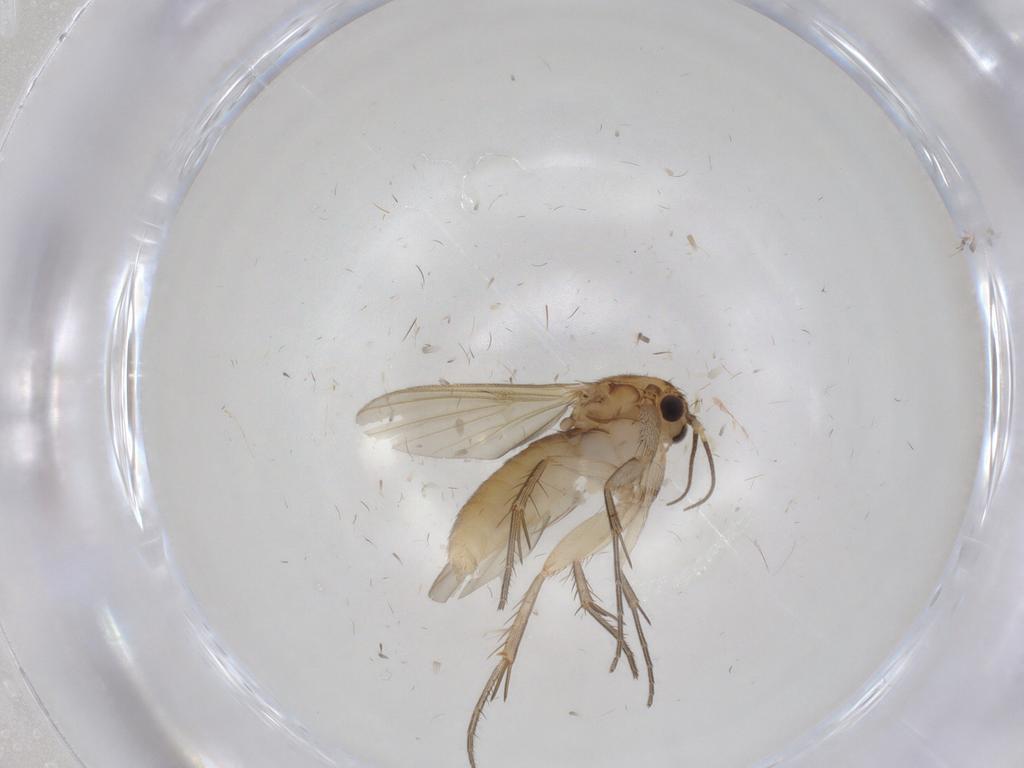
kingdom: Animalia
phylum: Arthropoda
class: Insecta
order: Diptera
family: Mycetophilidae
